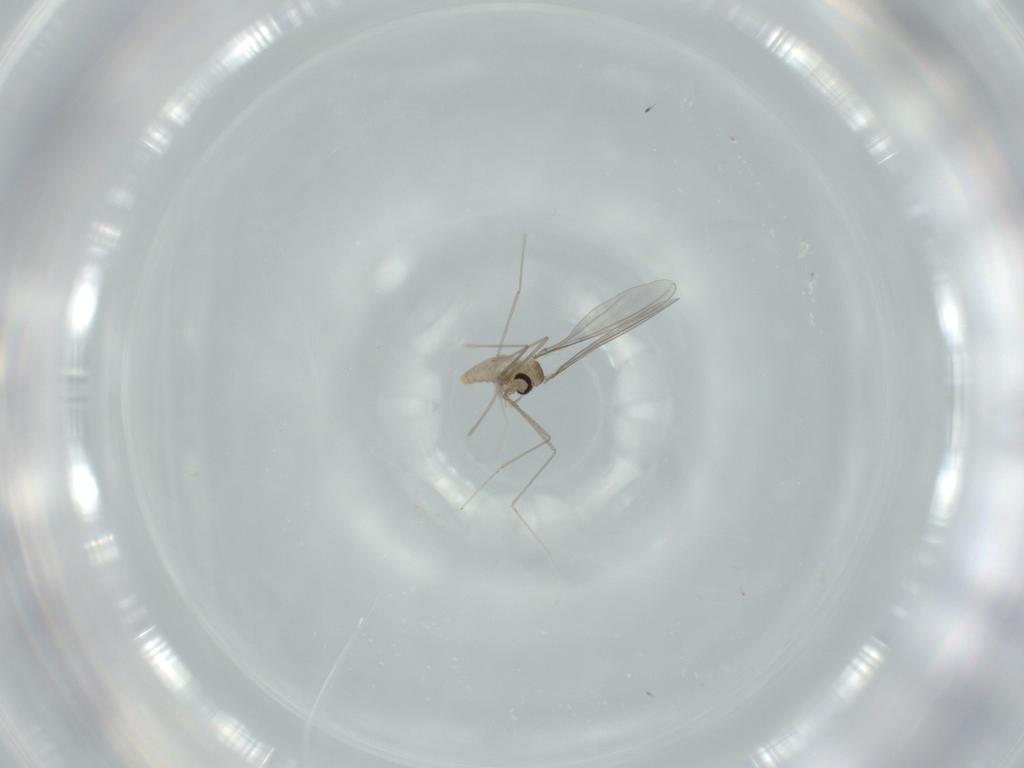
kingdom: Animalia
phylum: Arthropoda
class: Insecta
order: Diptera
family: Cecidomyiidae
